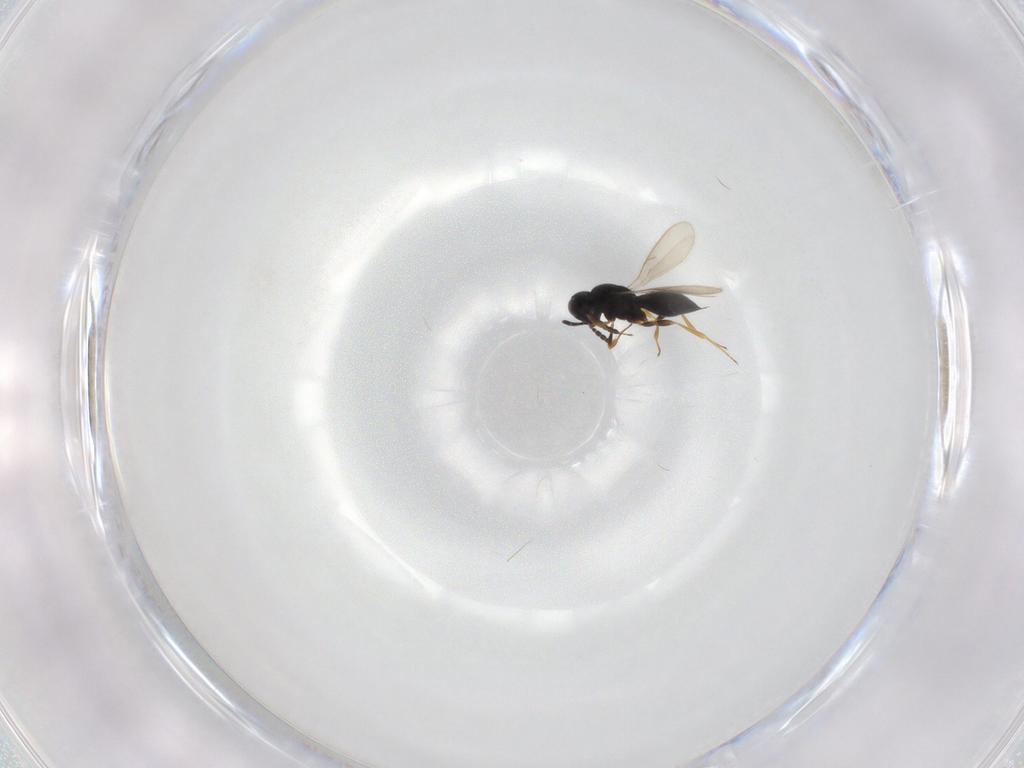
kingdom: Animalia
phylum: Arthropoda
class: Insecta
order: Hymenoptera
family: Scelionidae
